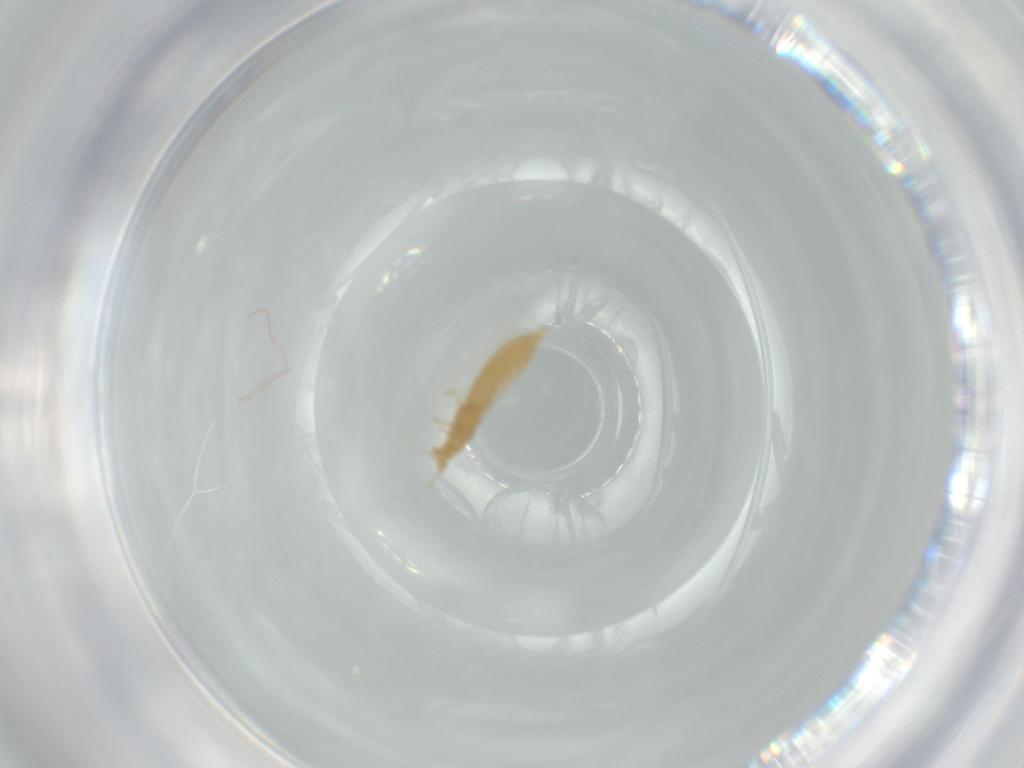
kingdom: Animalia
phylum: Arthropoda
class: Insecta
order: Thysanoptera
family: Thripidae
